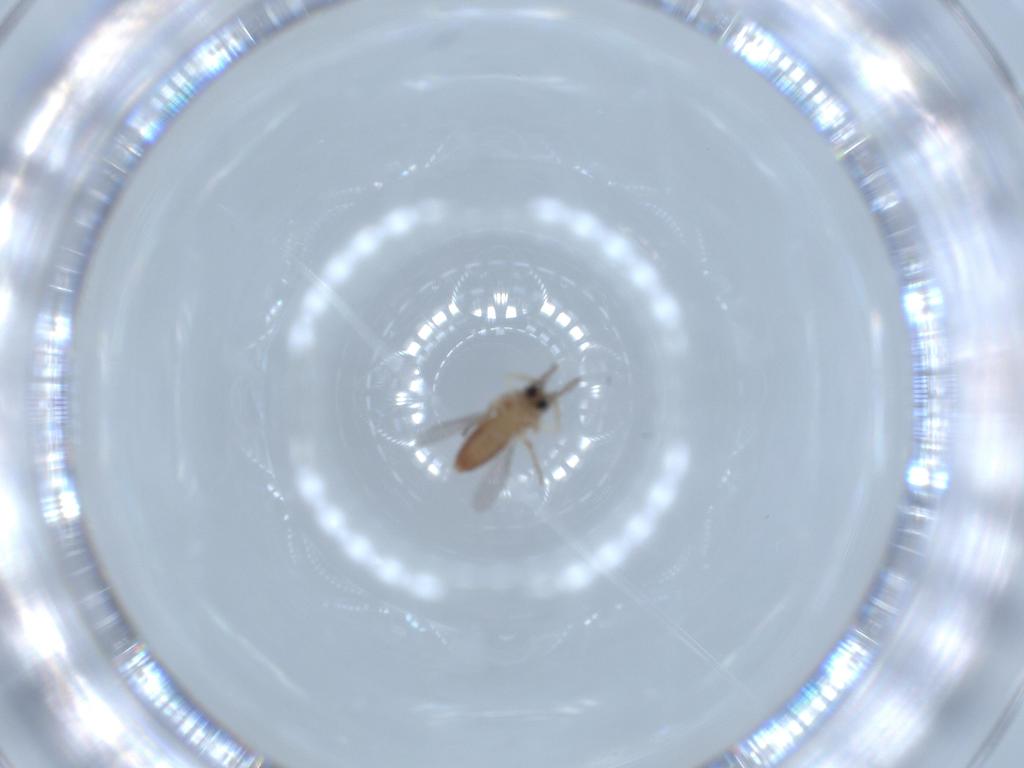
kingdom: Animalia
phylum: Arthropoda
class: Insecta
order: Diptera
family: Ceratopogonidae
